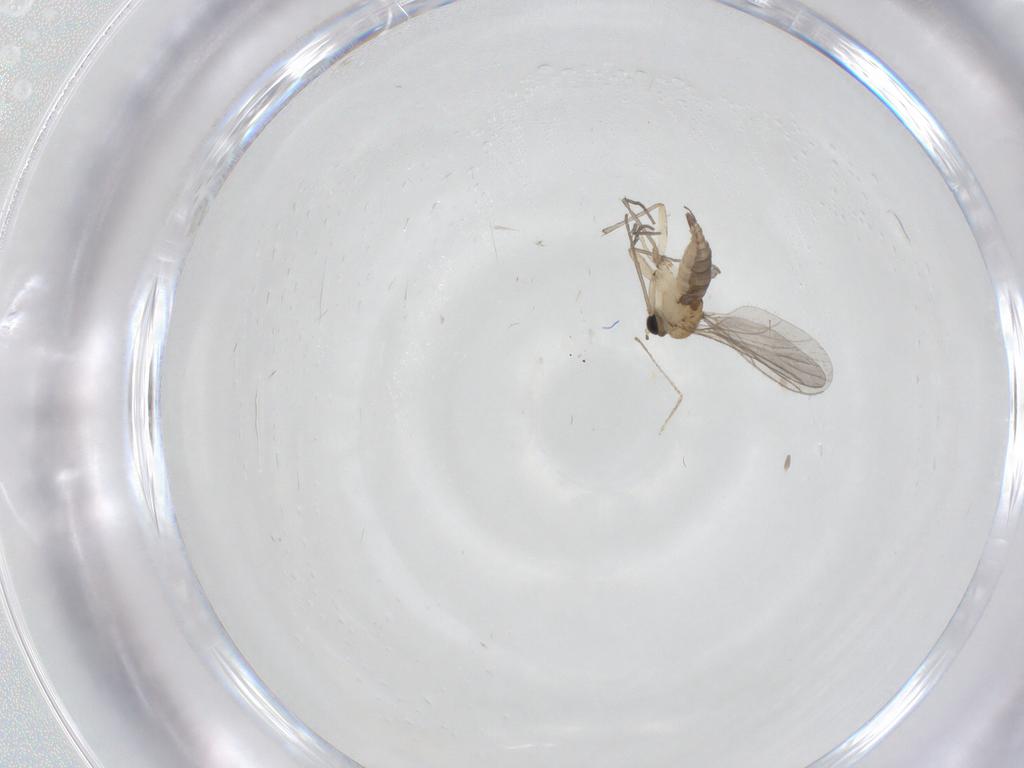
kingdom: Animalia
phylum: Arthropoda
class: Insecta
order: Diptera
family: Sciaridae
